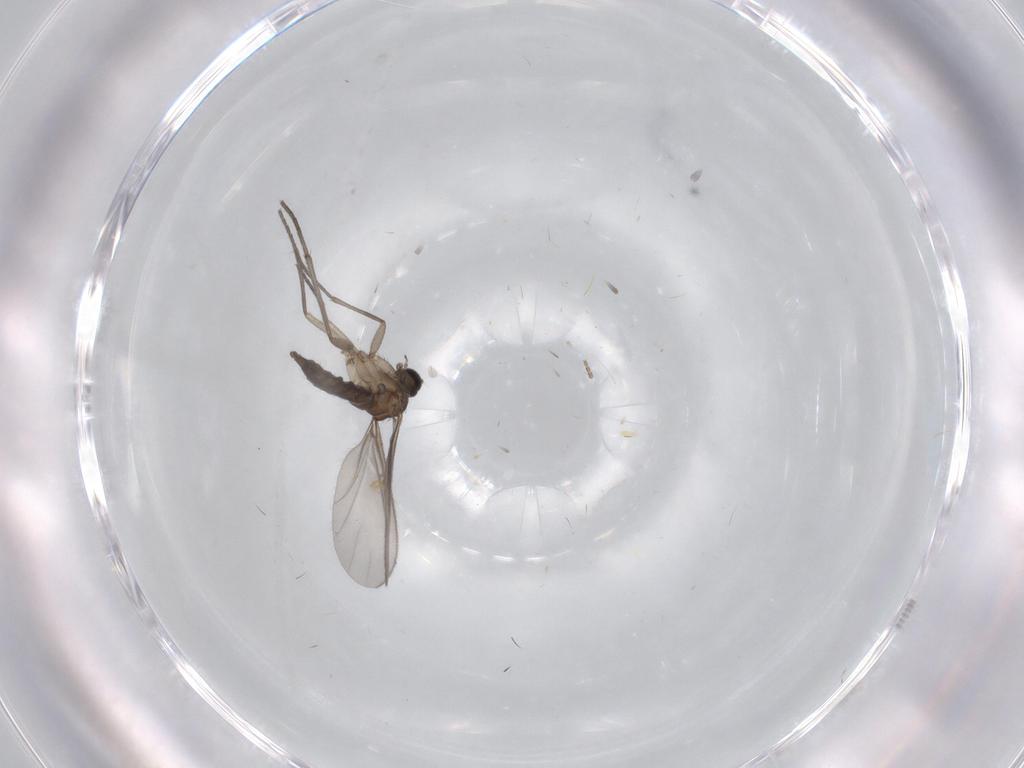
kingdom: Animalia
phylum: Arthropoda
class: Insecta
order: Diptera
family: Sciaridae
